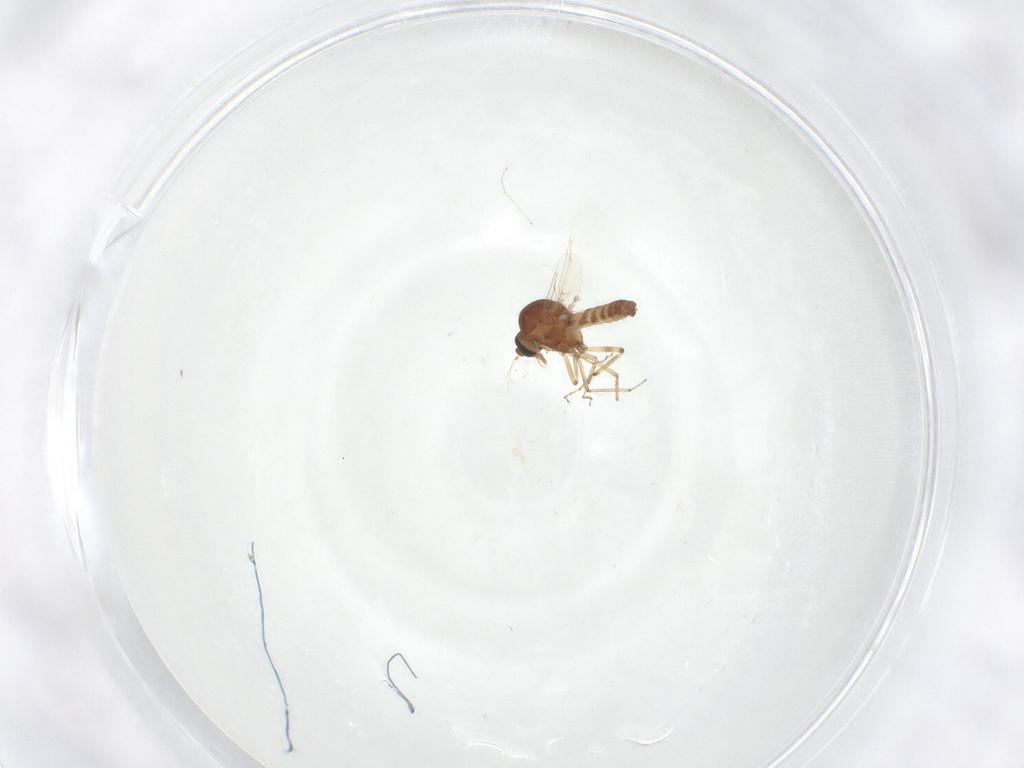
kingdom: Animalia
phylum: Arthropoda
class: Insecta
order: Diptera
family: Ceratopogonidae
